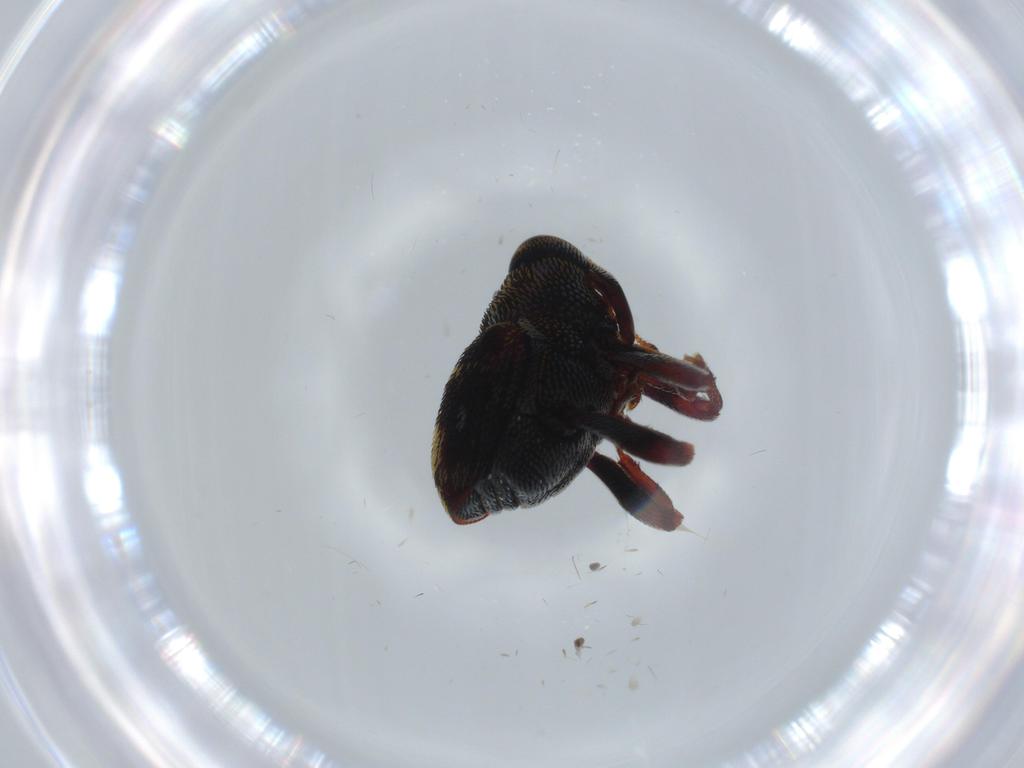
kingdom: Animalia
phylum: Arthropoda
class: Insecta
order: Coleoptera
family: Curculionidae
